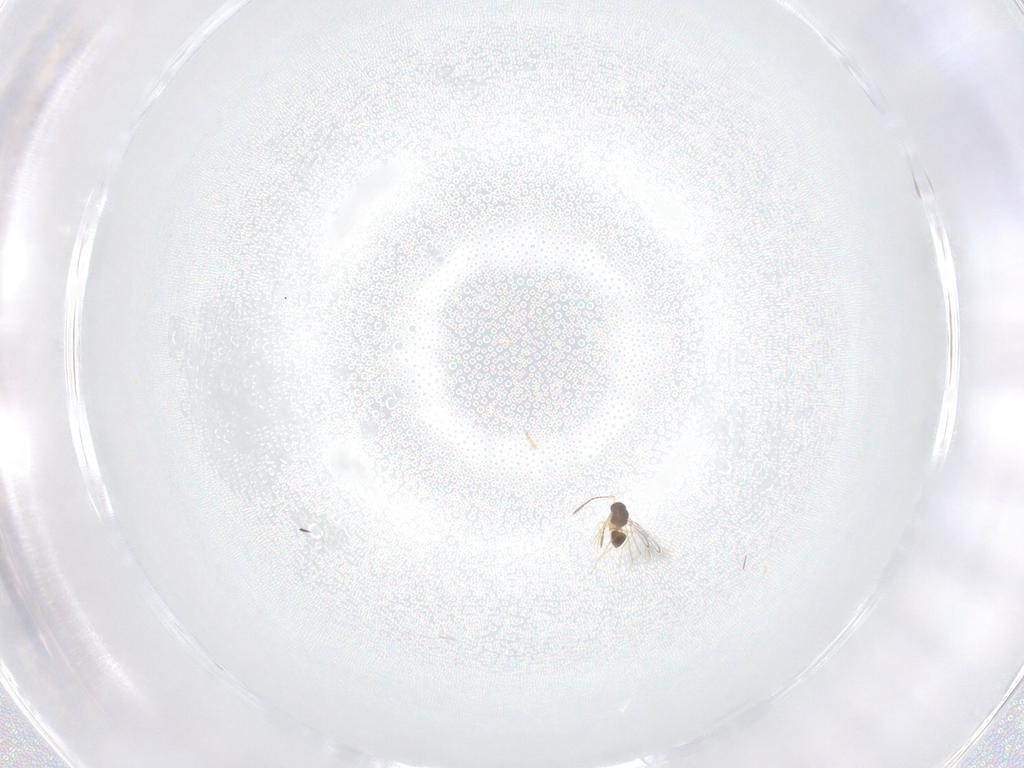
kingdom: Animalia
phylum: Arthropoda
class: Insecta
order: Hymenoptera
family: Mymaridae
